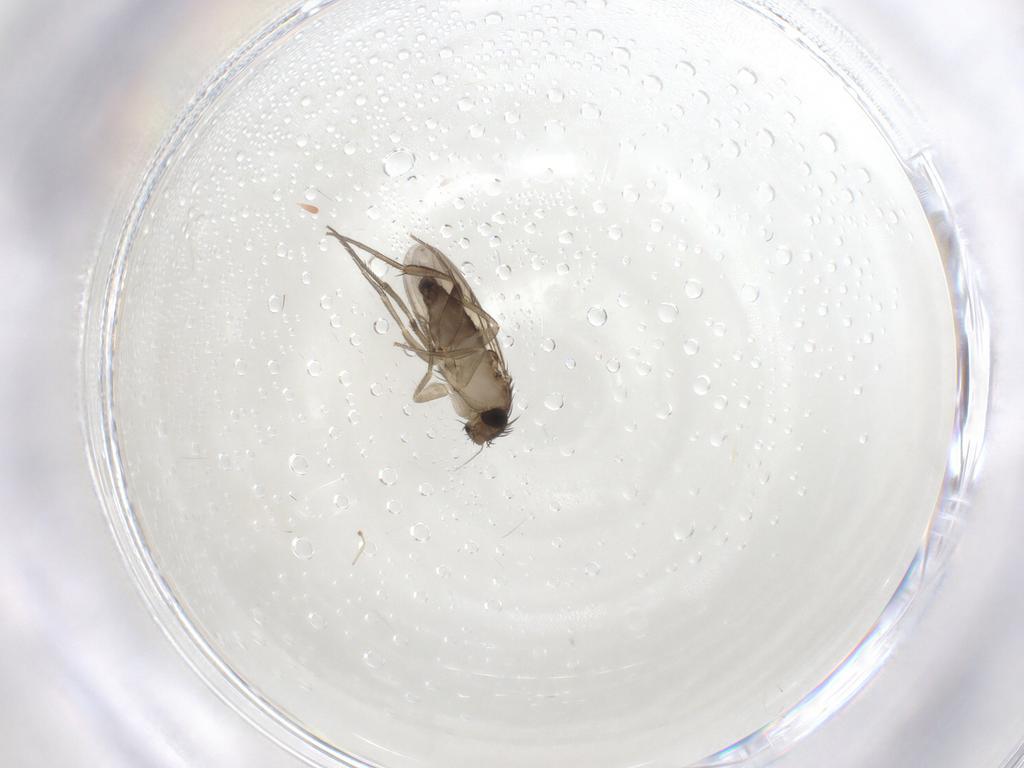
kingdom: Animalia
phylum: Arthropoda
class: Insecta
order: Diptera
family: Phoridae
